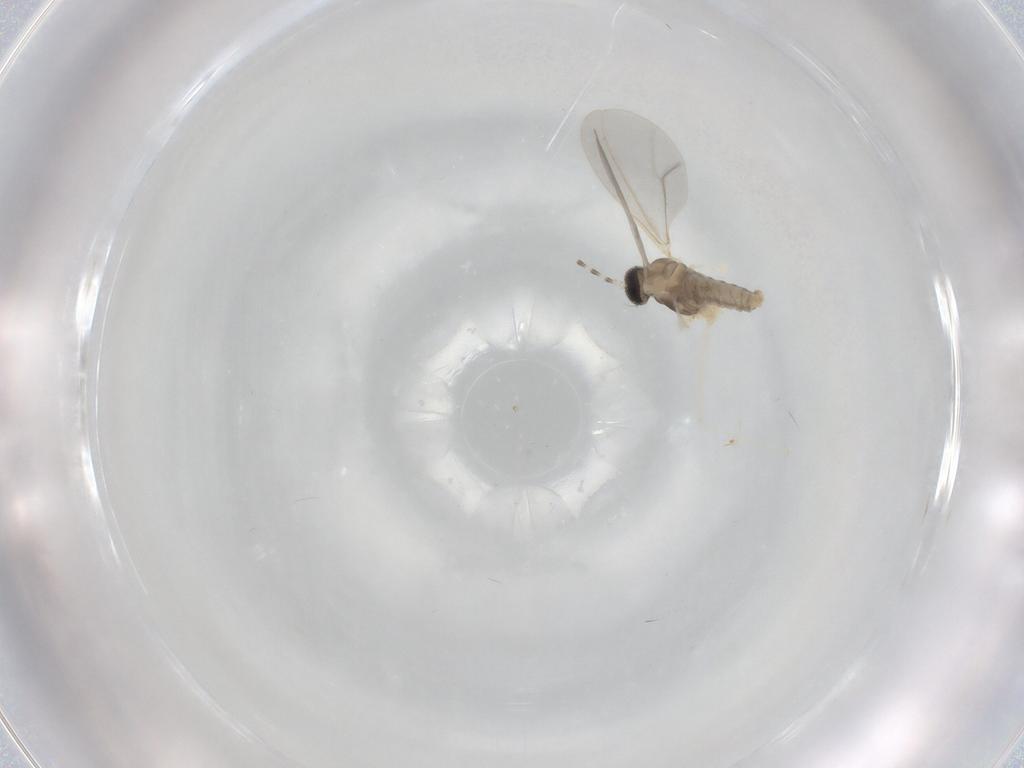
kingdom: Animalia
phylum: Arthropoda
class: Insecta
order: Diptera
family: Cecidomyiidae
